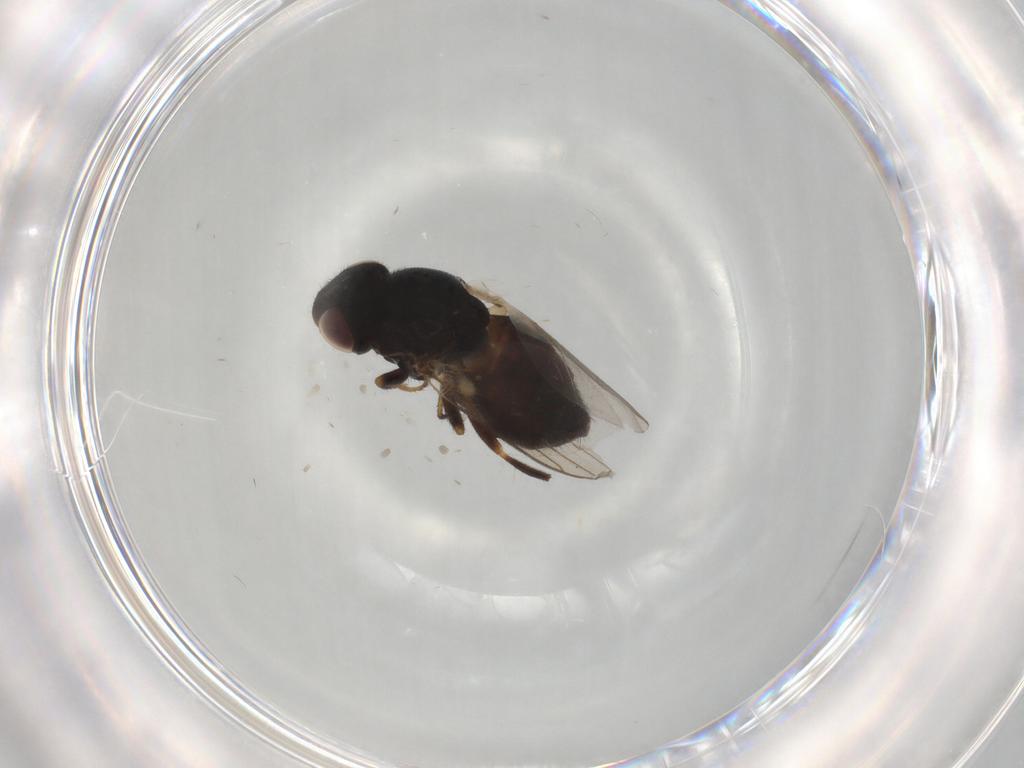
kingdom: Animalia
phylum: Arthropoda
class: Insecta
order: Diptera
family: Chloropidae
